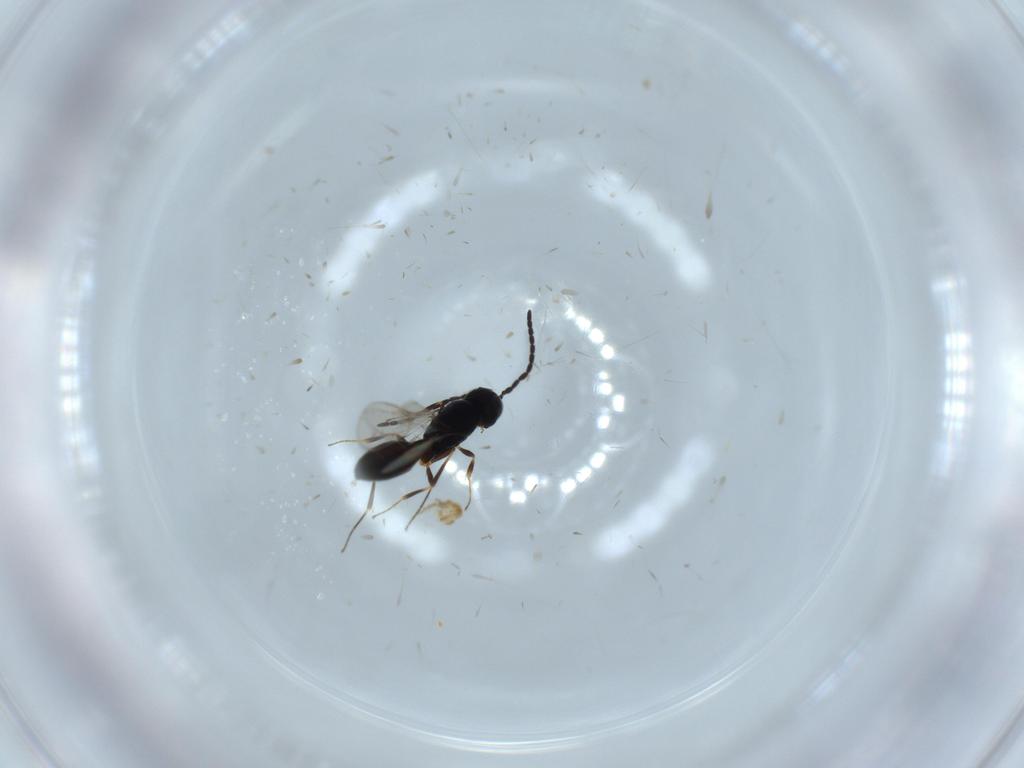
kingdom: Animalia
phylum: Arthropoda
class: Insecta
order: Hymenoptera
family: Formicidae
